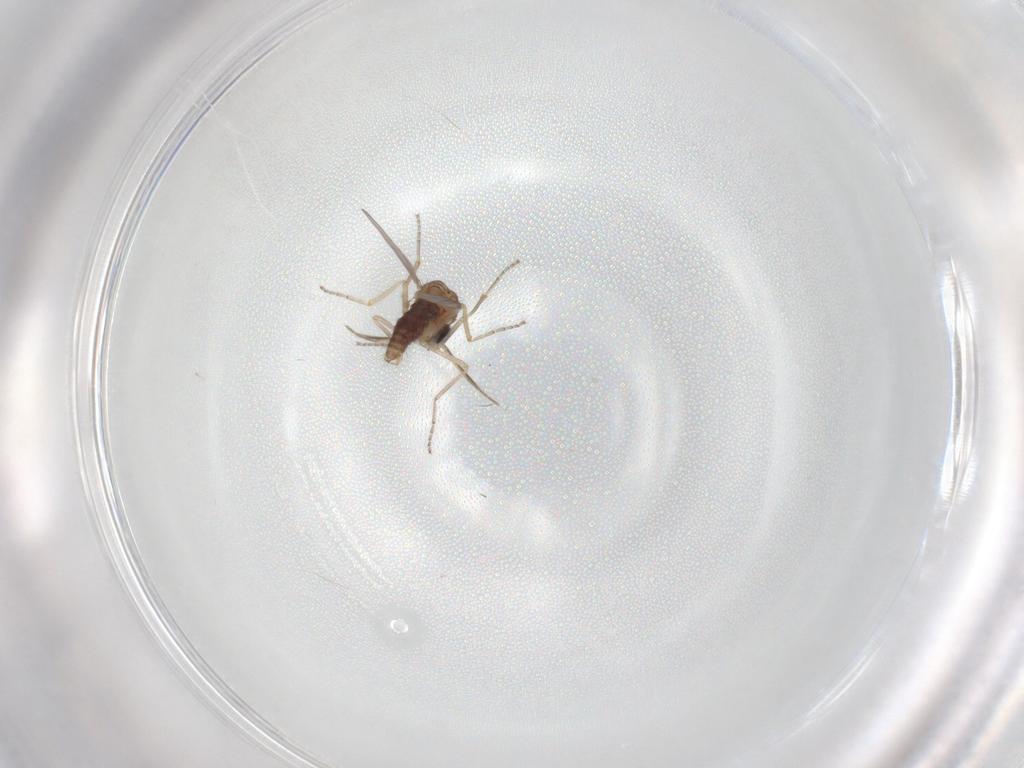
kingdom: Animalia
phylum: Arthropoda
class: Insecta
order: Diptera
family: Ceratopogonidae
